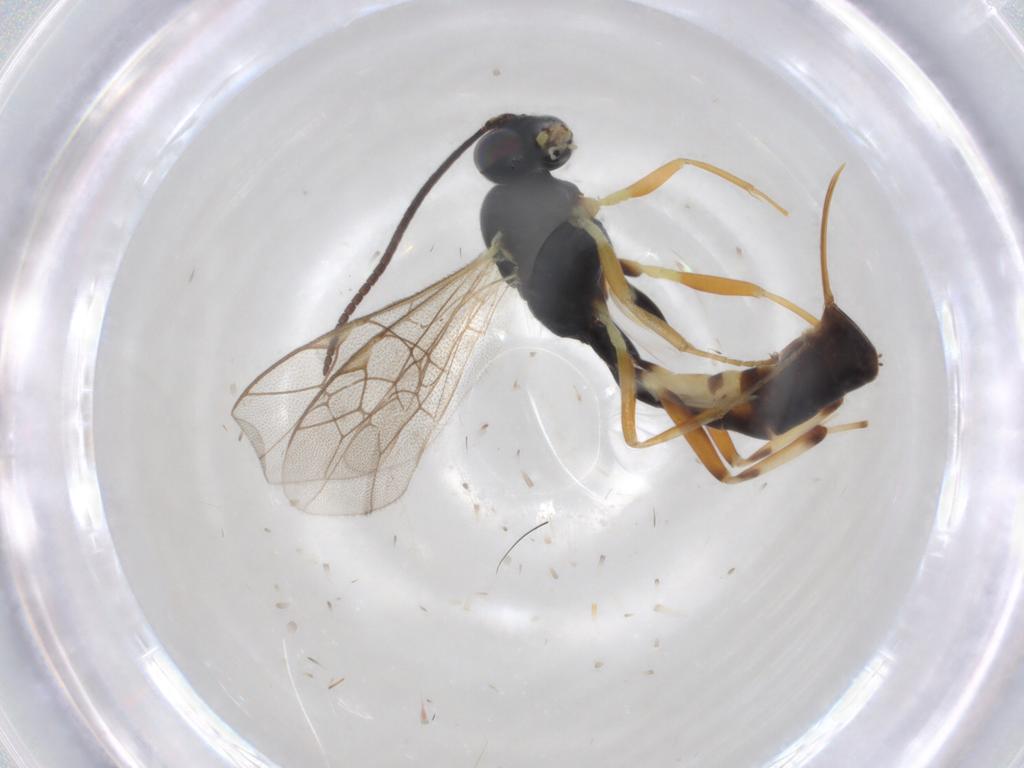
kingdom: Animalia
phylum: Arthropoda
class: Insecta
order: Hymenoptera
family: Ichneumonidae
